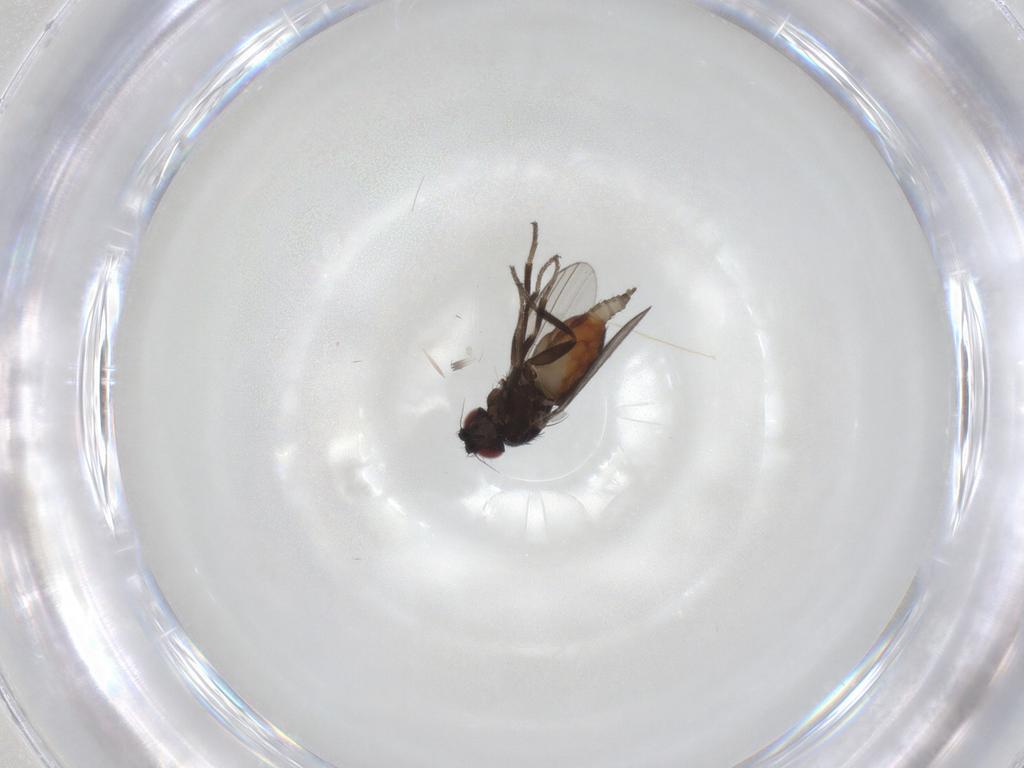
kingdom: Animalia
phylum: Arthropoda
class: Insecta
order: Diptera
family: Milichiidae
